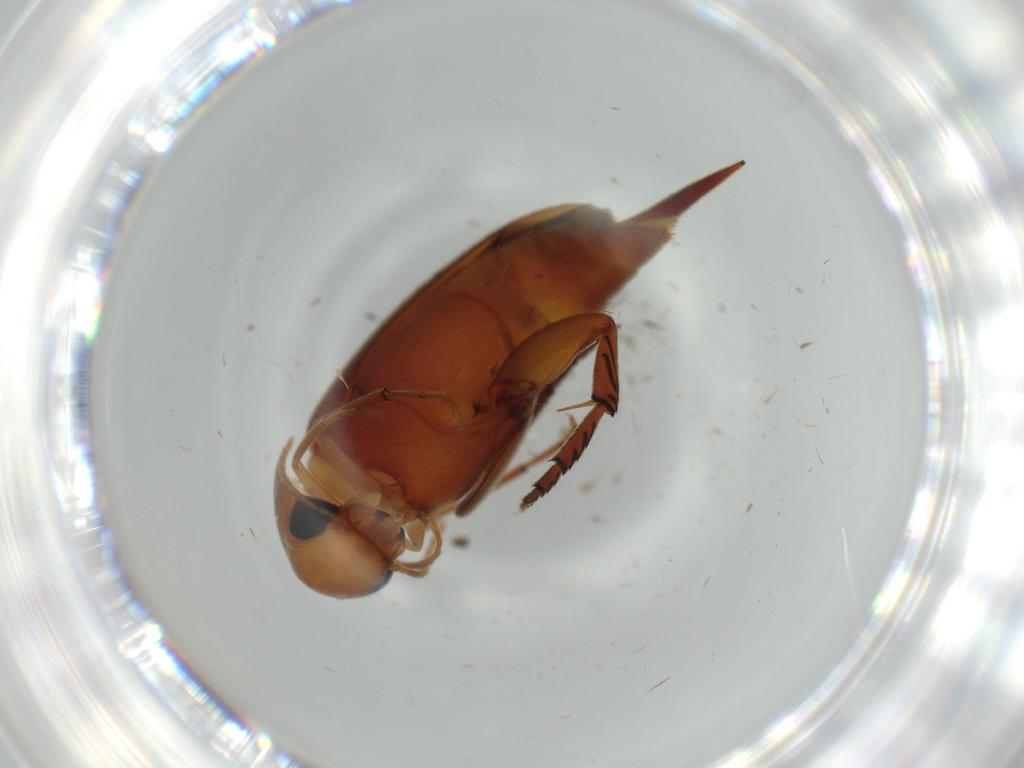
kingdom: Animalia
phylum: Arthropoda
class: Insecta
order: Coleoptera
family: Mordellidae
